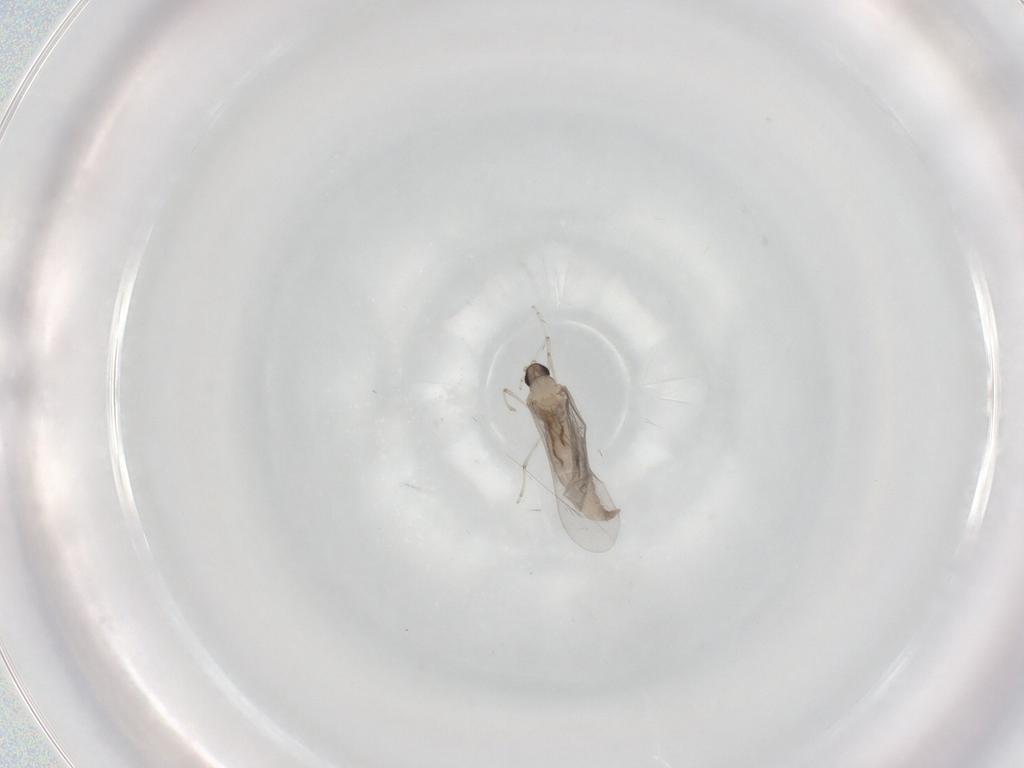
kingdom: Animalia
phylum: Arthropoda
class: Insecta
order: Diptera
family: Cecidomyiidae
